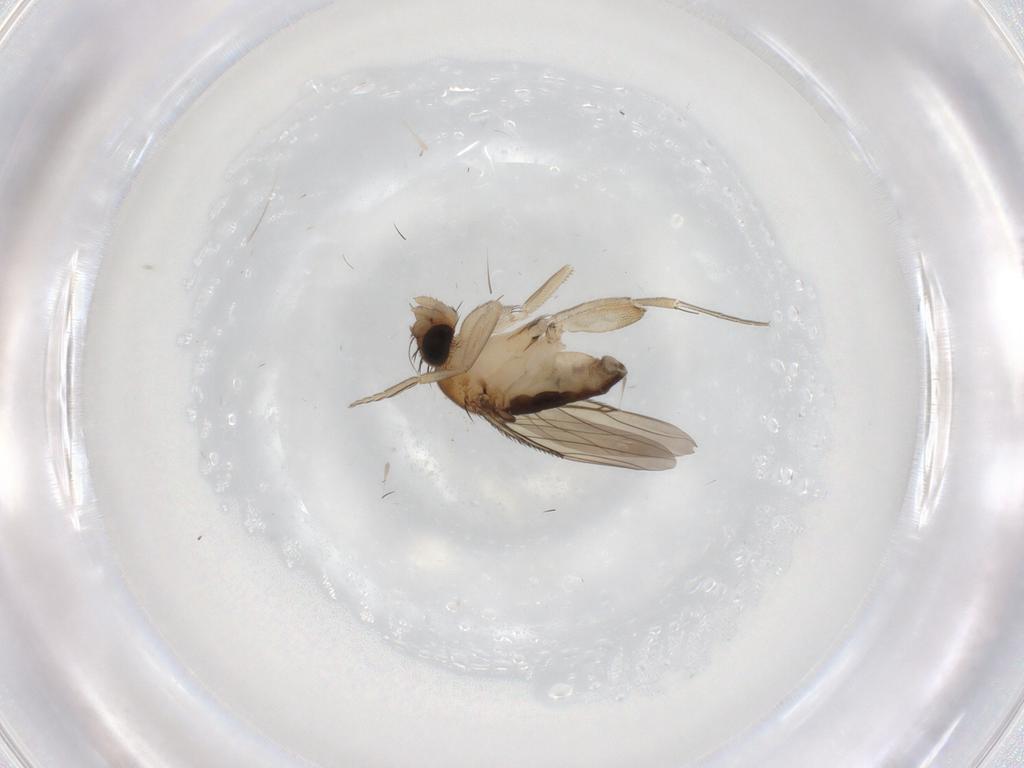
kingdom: Animalia
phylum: Arthropoda
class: Insecta
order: Diptera
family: Phoridae
